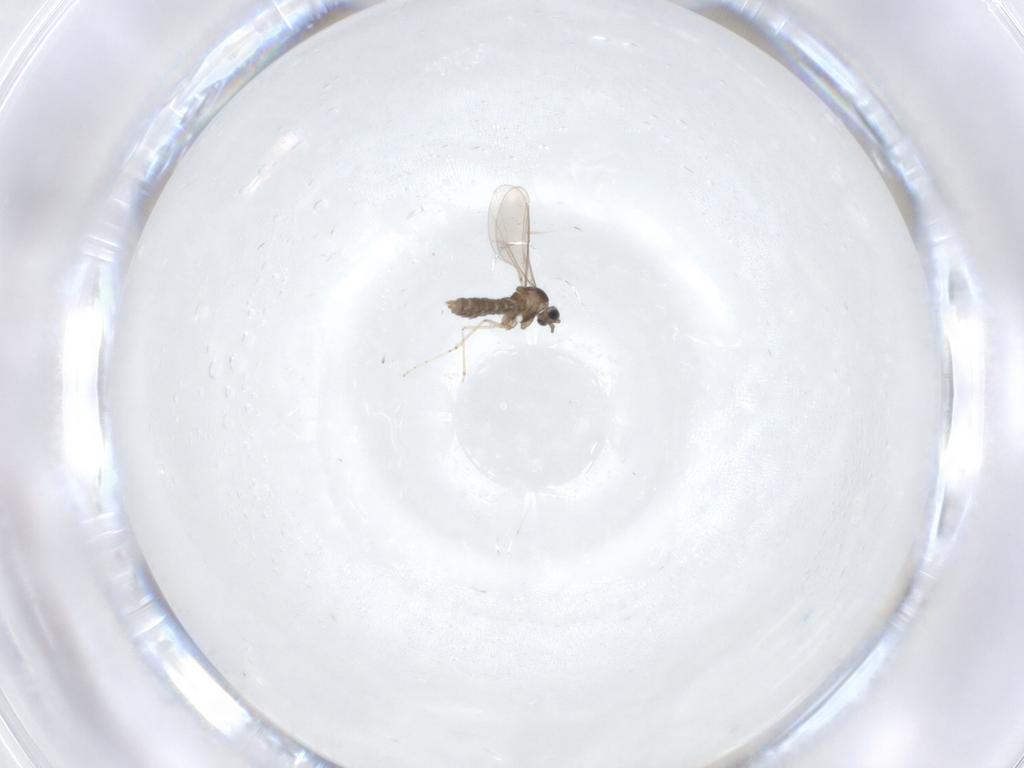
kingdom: Animalia
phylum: Arthropoda
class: Insecta
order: Diptera
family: Cecidomyiidae
